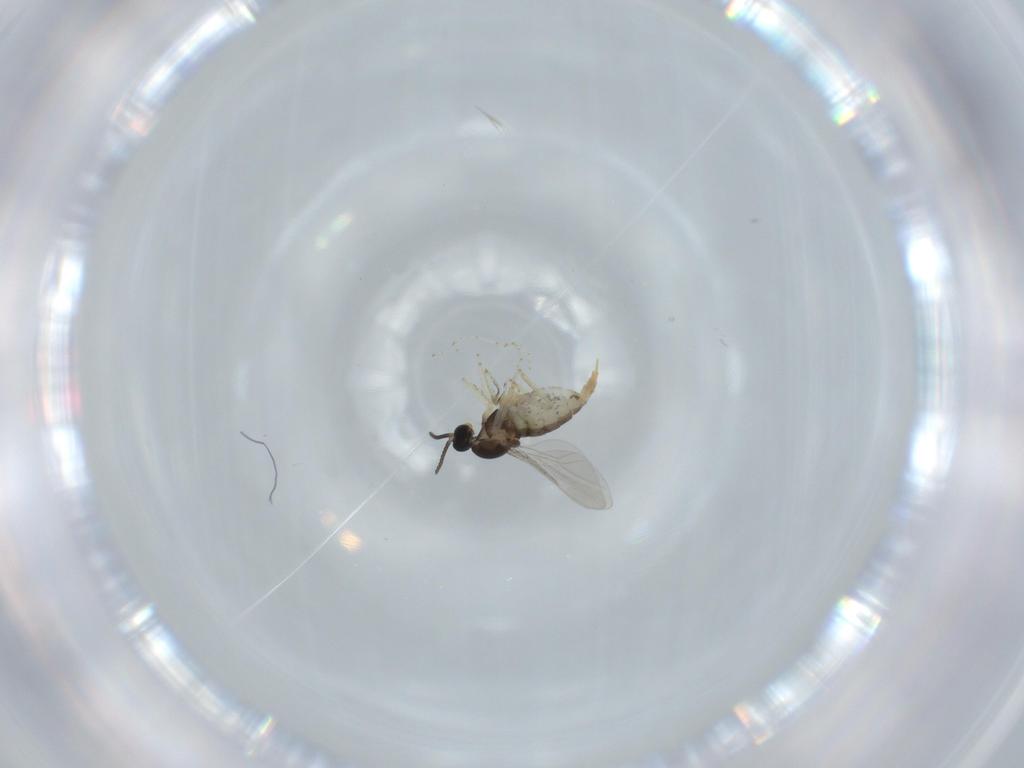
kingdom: Animalia
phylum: Arthropoda
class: Insecta
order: Diptera
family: Cecidomyiidae
